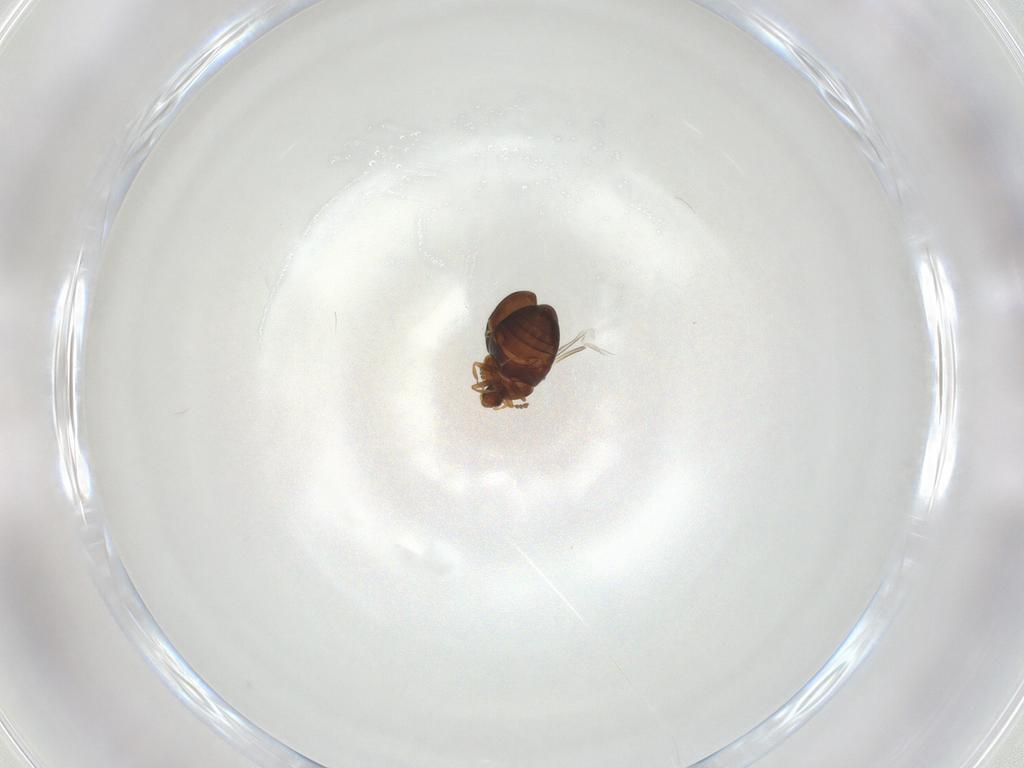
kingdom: Animalia
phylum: Arthropoda
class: Insecta
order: Coleoptera
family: Corylophidae
